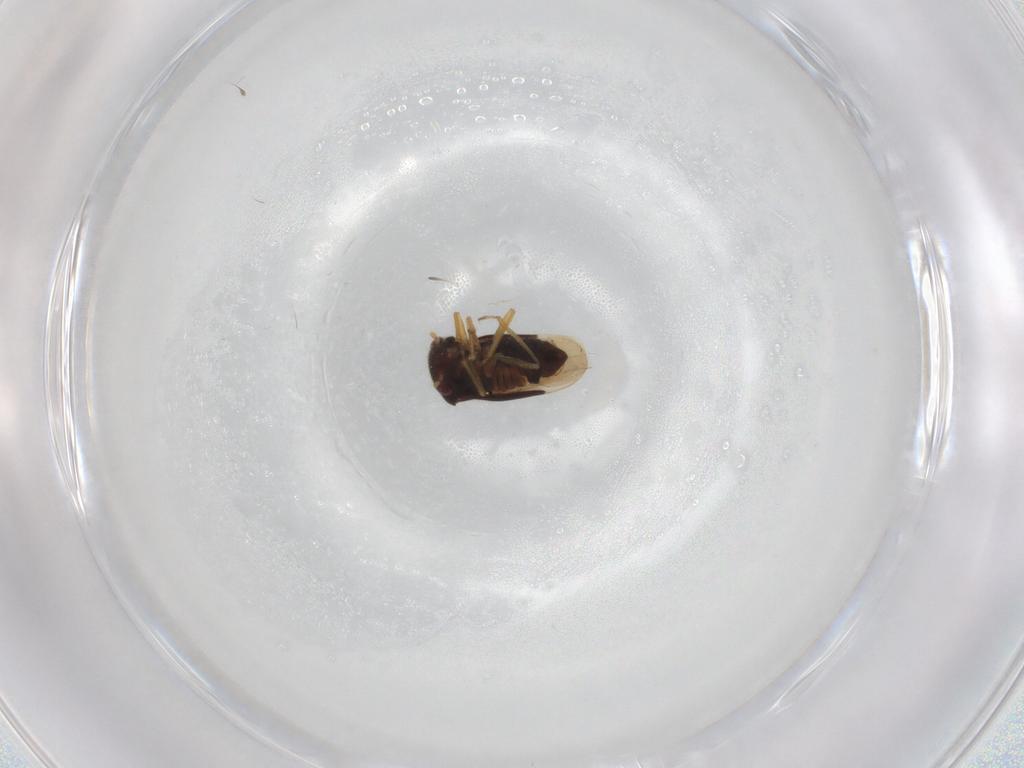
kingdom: Animalia
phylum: Arthropoda
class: Insecta
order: Hemiptera
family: Schizopteridae
